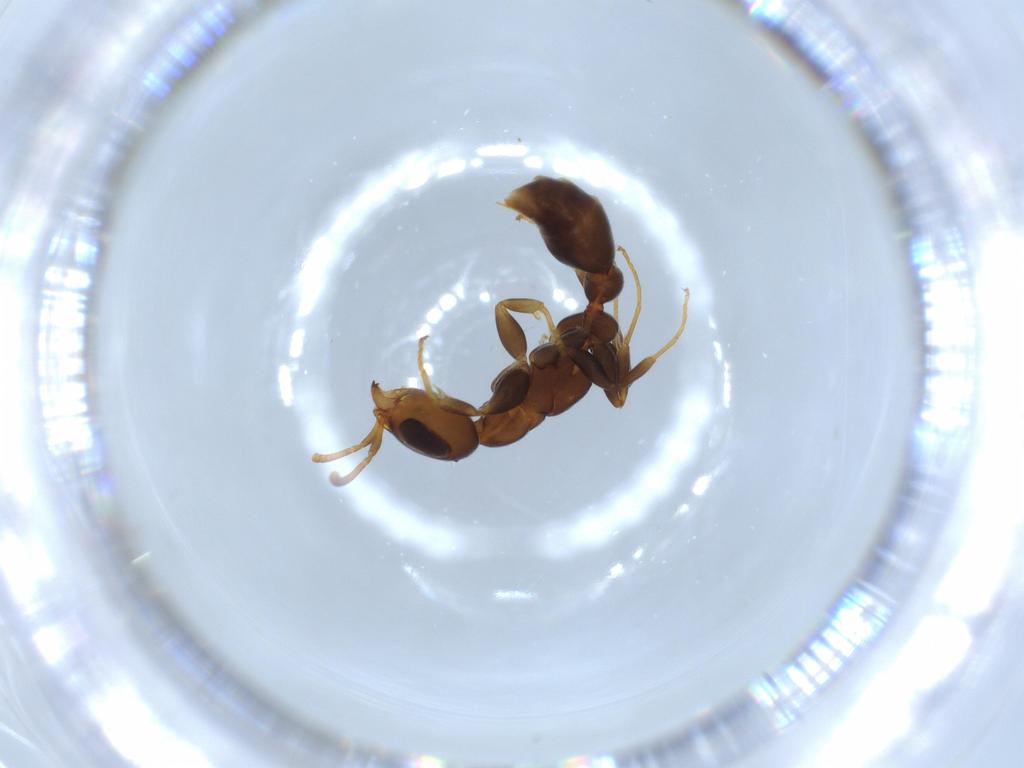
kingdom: Animalia
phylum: Arthropoda
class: Insecta
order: Hymenoptera
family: Formicidae
